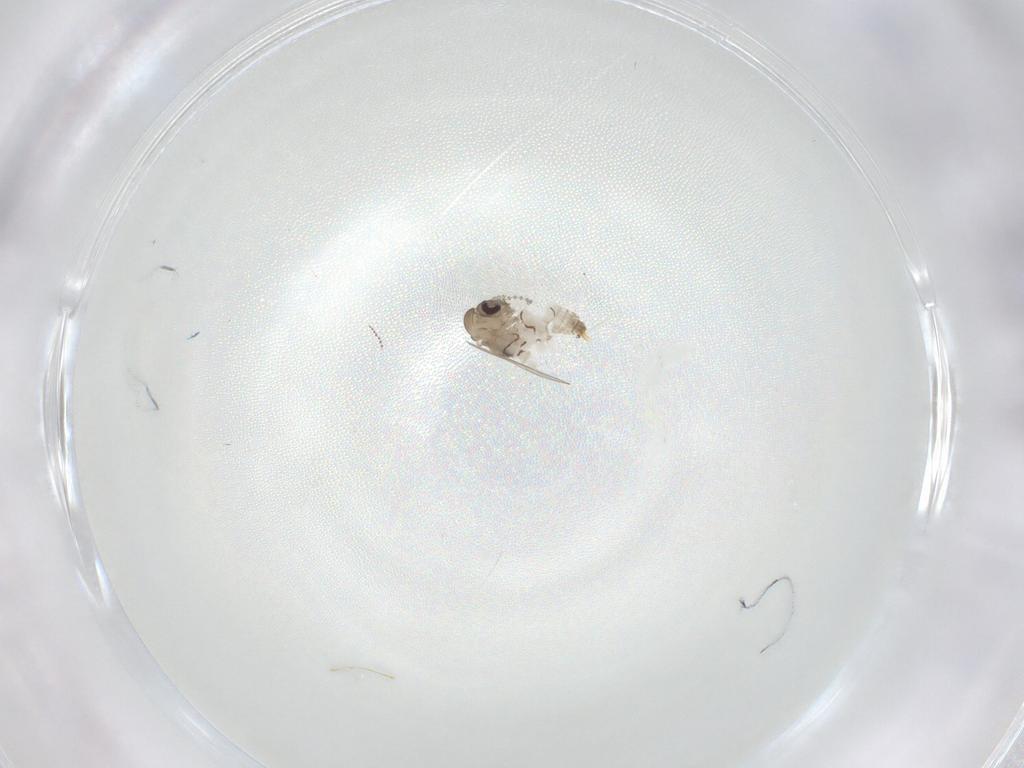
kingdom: Animalia
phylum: Arthropoda
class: Insecta
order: Diptera
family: Psychodidae
